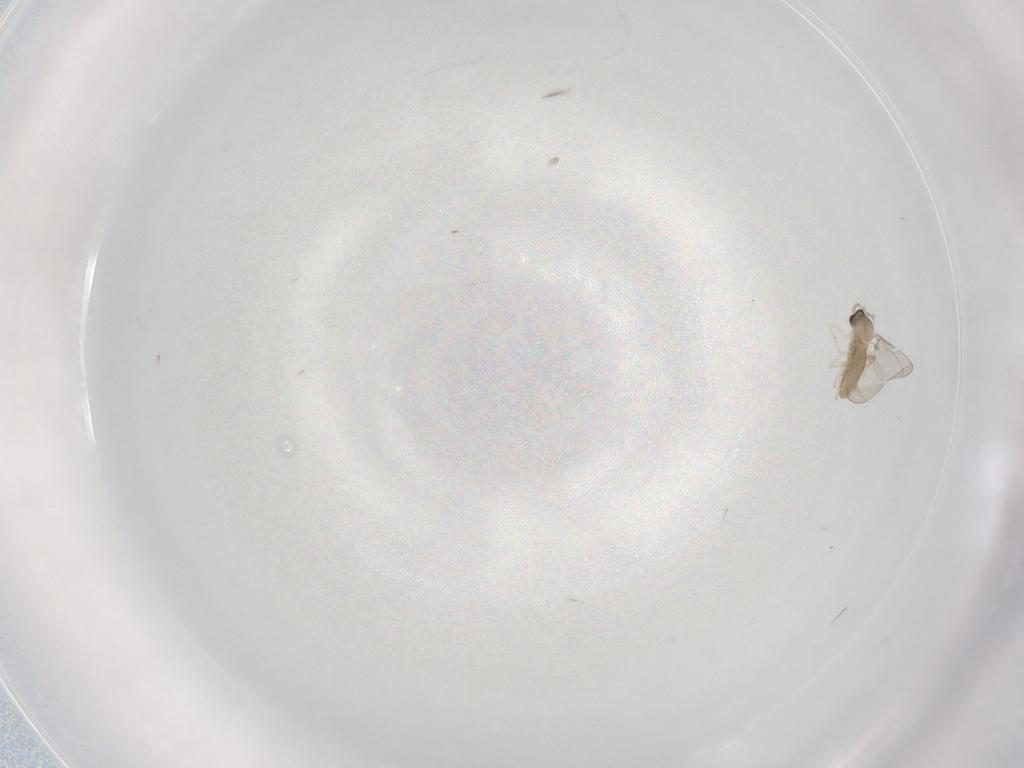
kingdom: Animalia
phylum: Arthropoda
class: Insecta
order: Diptera
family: Cecidomyiidae
